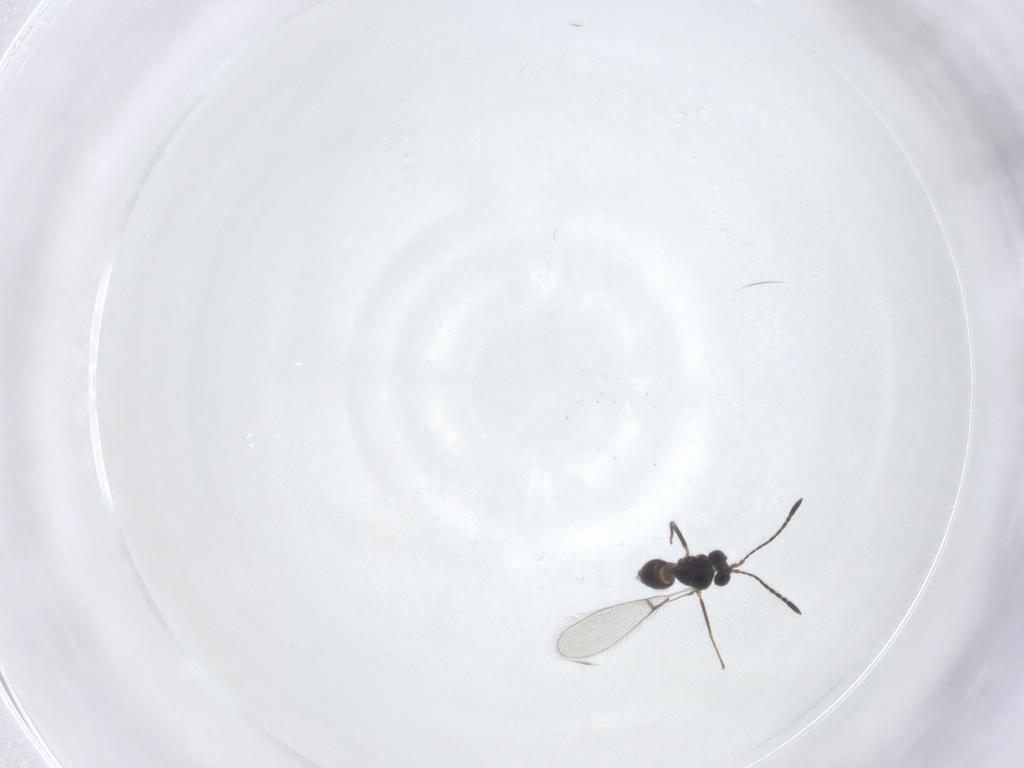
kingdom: Animalia
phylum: Arthropoda
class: Insecta
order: Hymenoptera
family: Mymaridae
